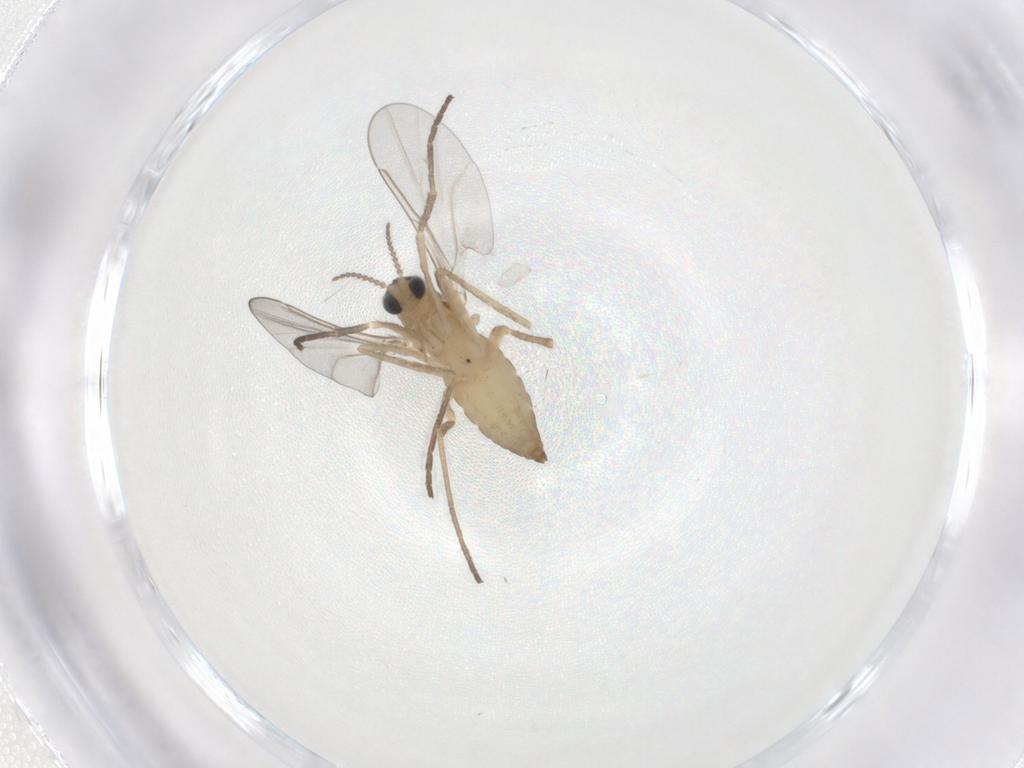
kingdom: Animalia
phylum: Arthropoda
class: Insecta
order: Diptera
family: Cecidomyiidae
